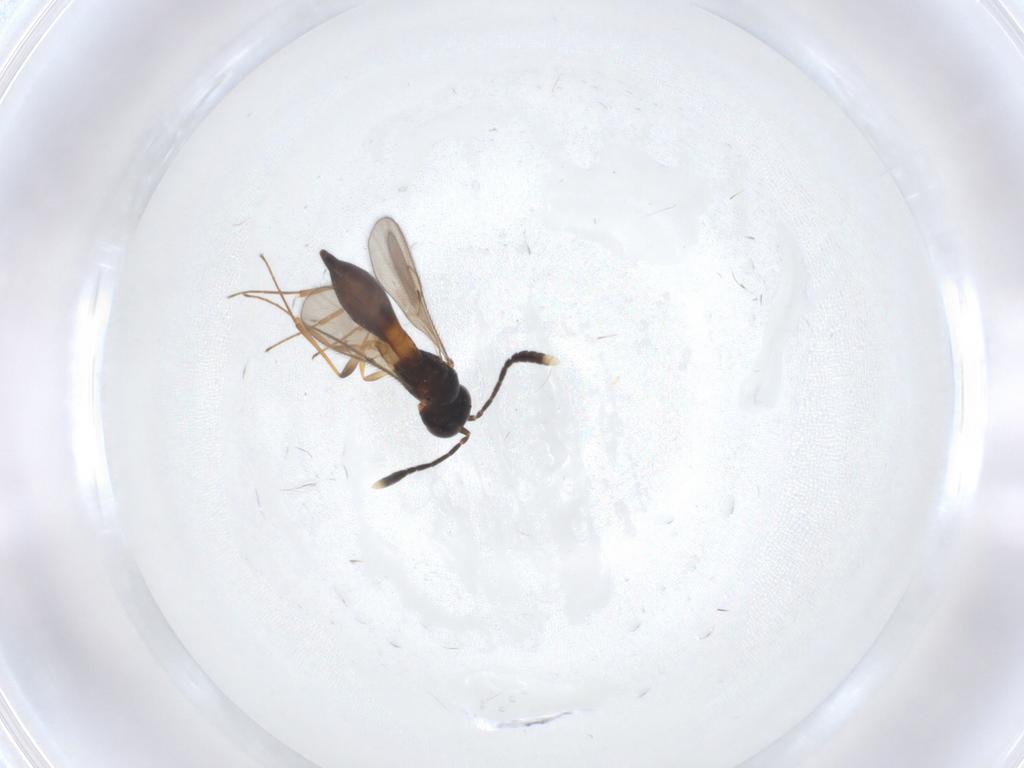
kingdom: Animalia
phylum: Arthropoda
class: Insecta
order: Hymenoptera
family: Scelionidae
